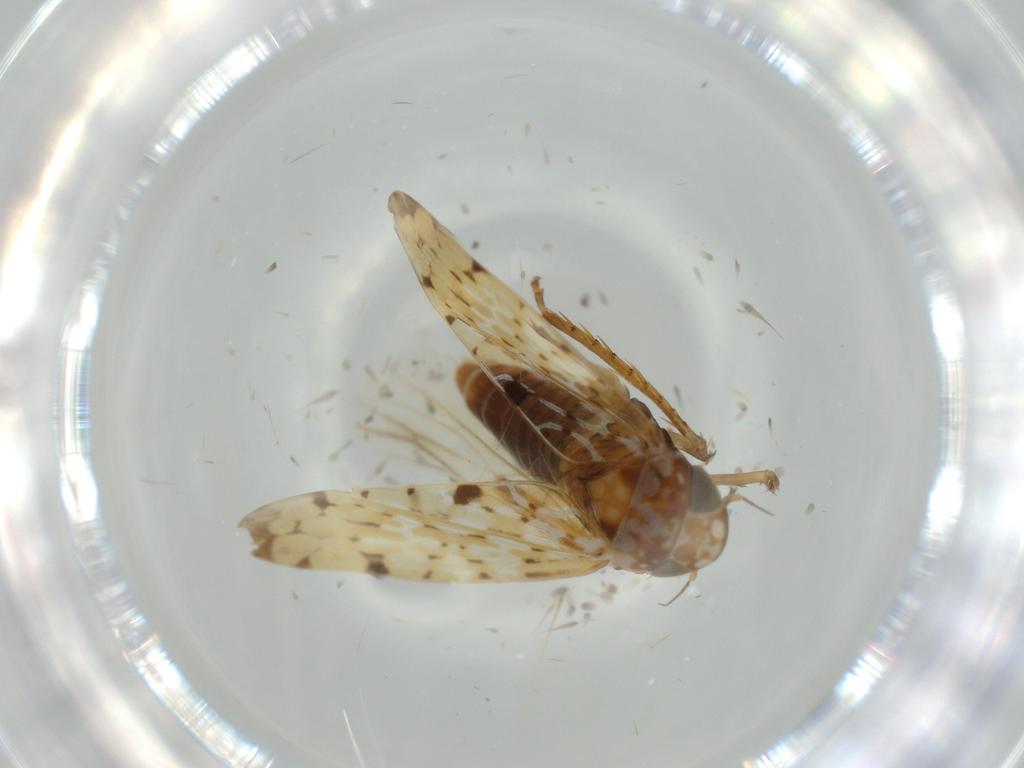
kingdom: Animalia
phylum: Arthropoda
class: Insecta
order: Hemiptera
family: Cicadellidae
